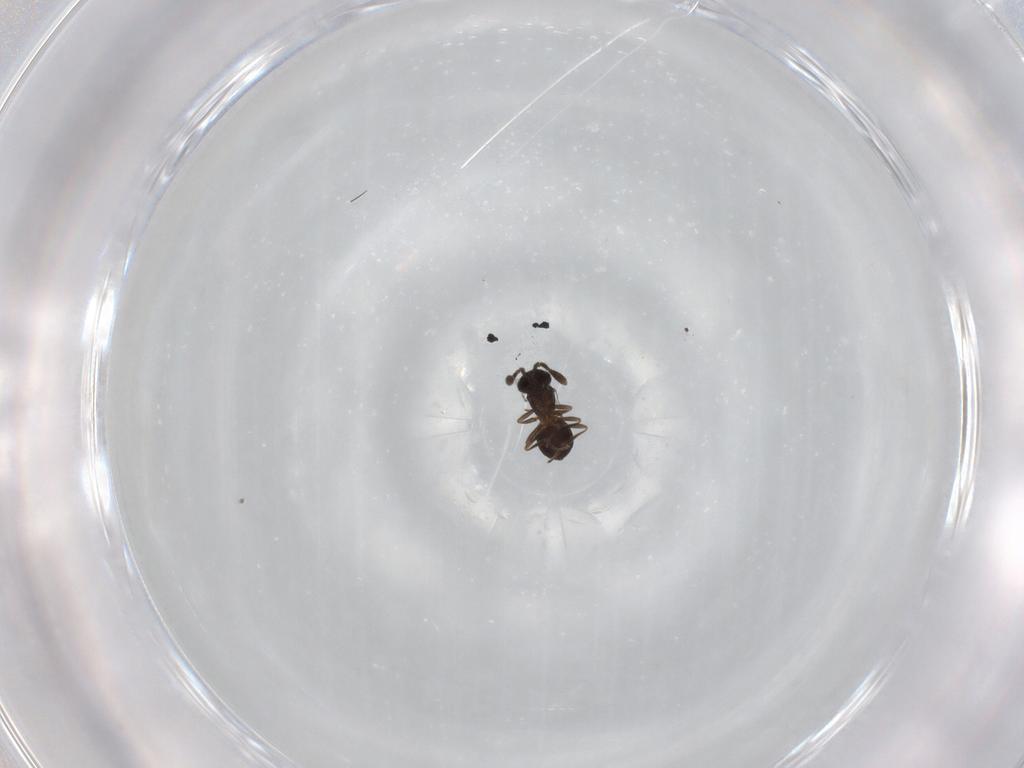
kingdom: Animalia
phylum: Arthropoda
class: Insecta
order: Hymenoptera
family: Scelionidae
